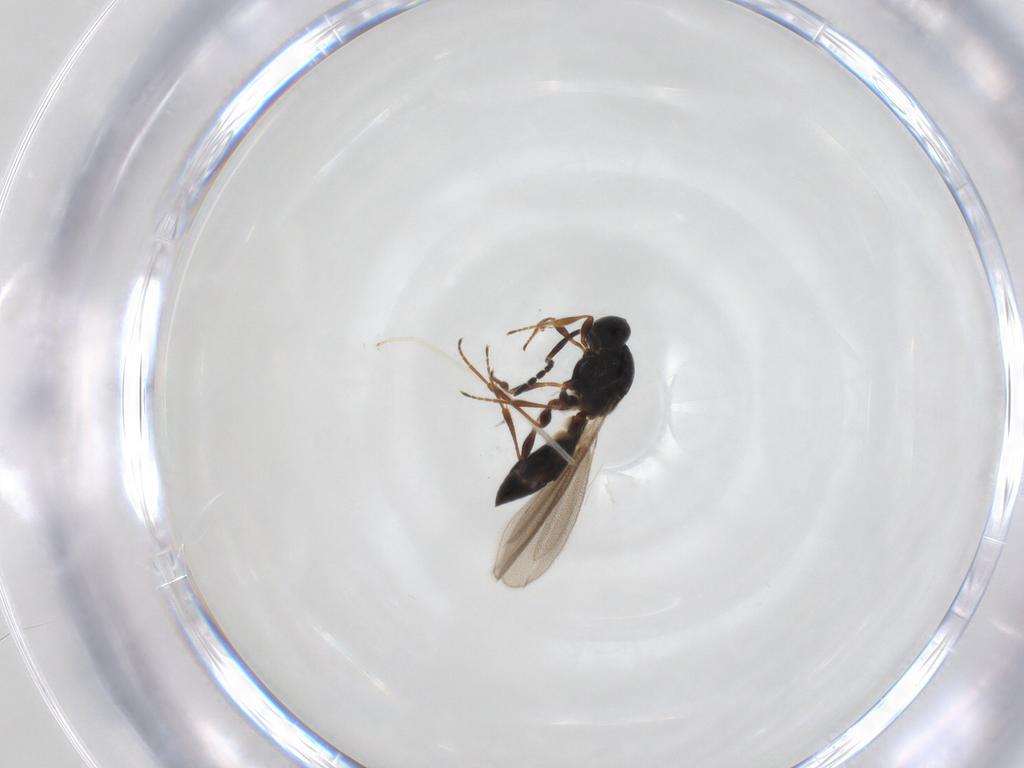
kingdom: Animalia
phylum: Arthropoda
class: Insecta
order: Hymenoptera
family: Platygastridae
